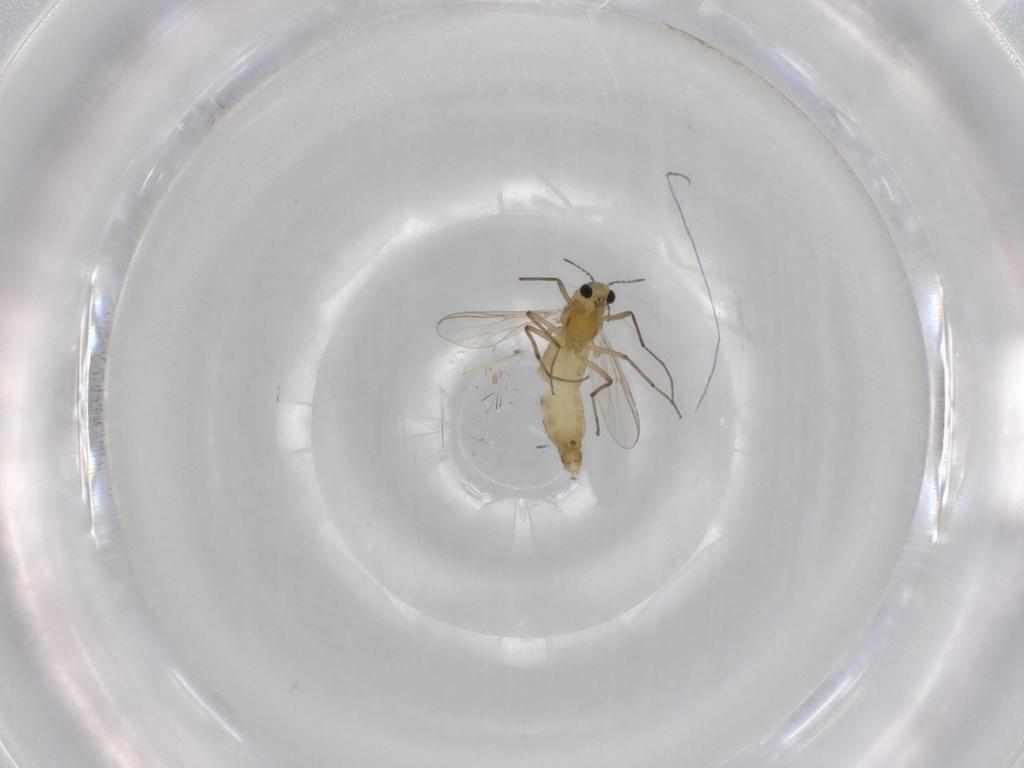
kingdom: Animalia
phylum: Arthropoda
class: Insecta
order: Diptera
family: Chironomidae
